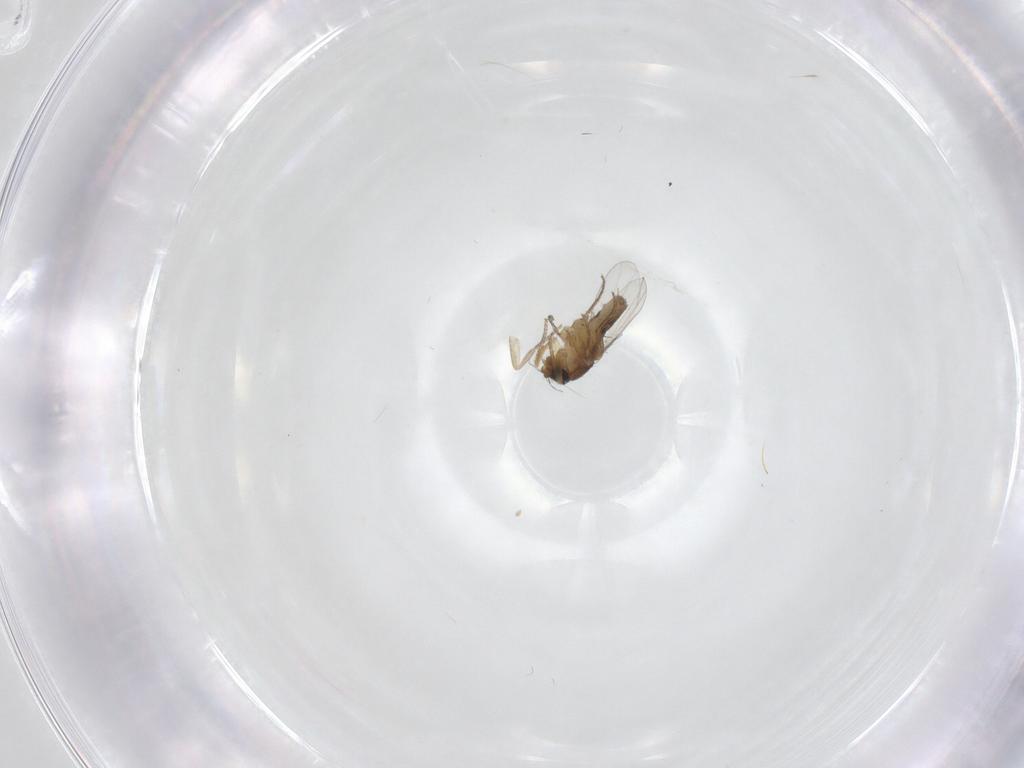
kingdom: Animalia
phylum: Arthropoda
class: Insecta
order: Diptera
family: Phoridae
